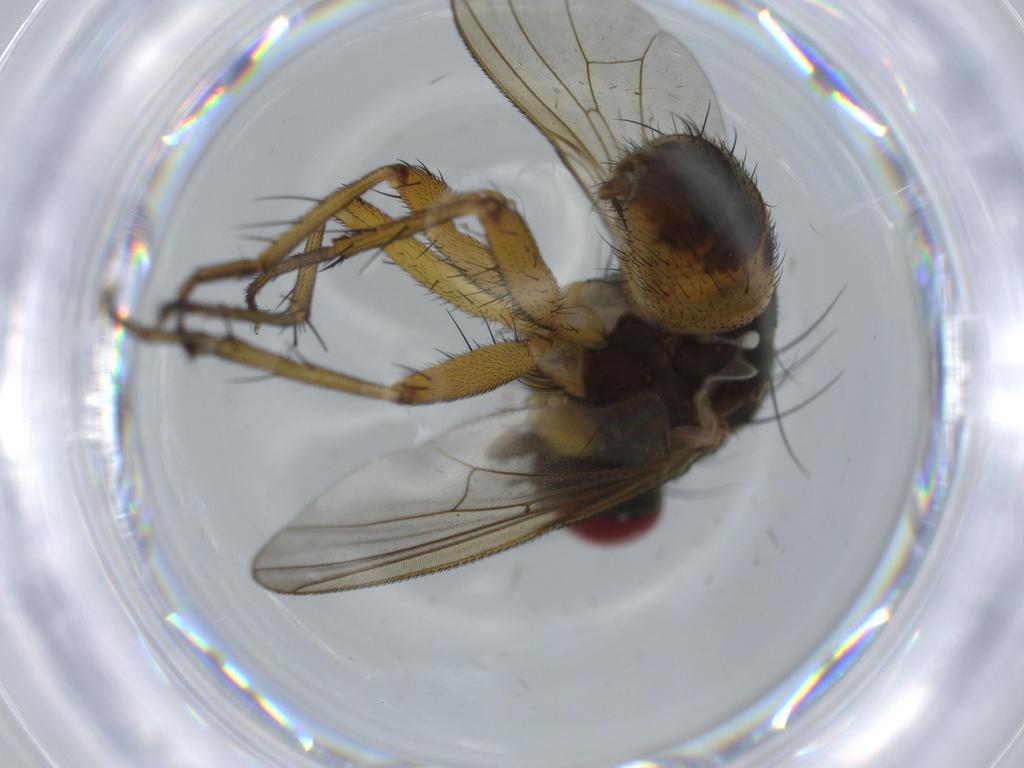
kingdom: Animalia
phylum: Arthropoda
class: Insecta
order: Diptera
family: Muscidae
